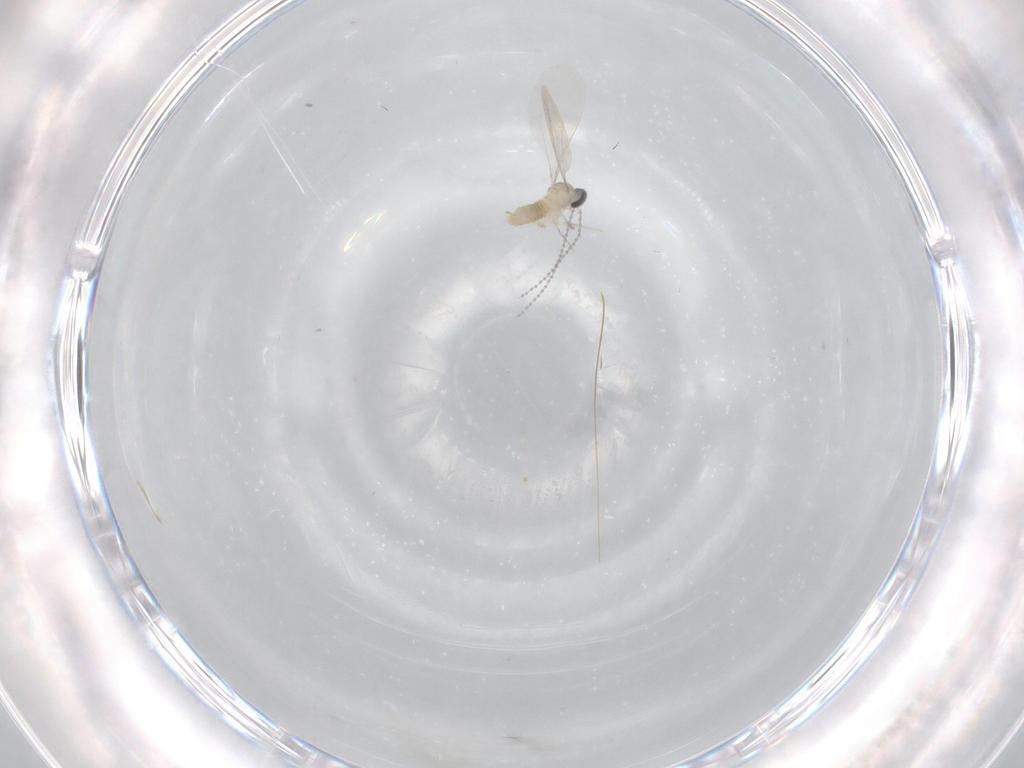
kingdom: Animalia
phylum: Arthropoda
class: Insecta
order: Diptera
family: Cecidomyiidae
